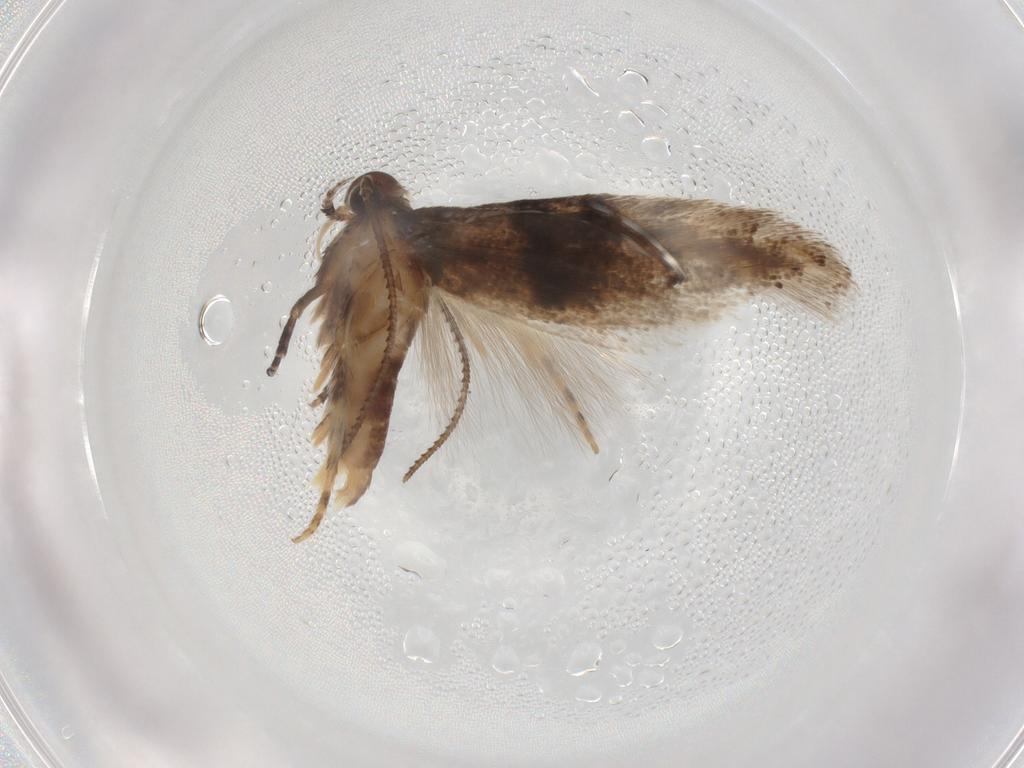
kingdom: Animalia
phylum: Arthropoda
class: Insecta
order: Lepidoptera
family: Gelechiidae
